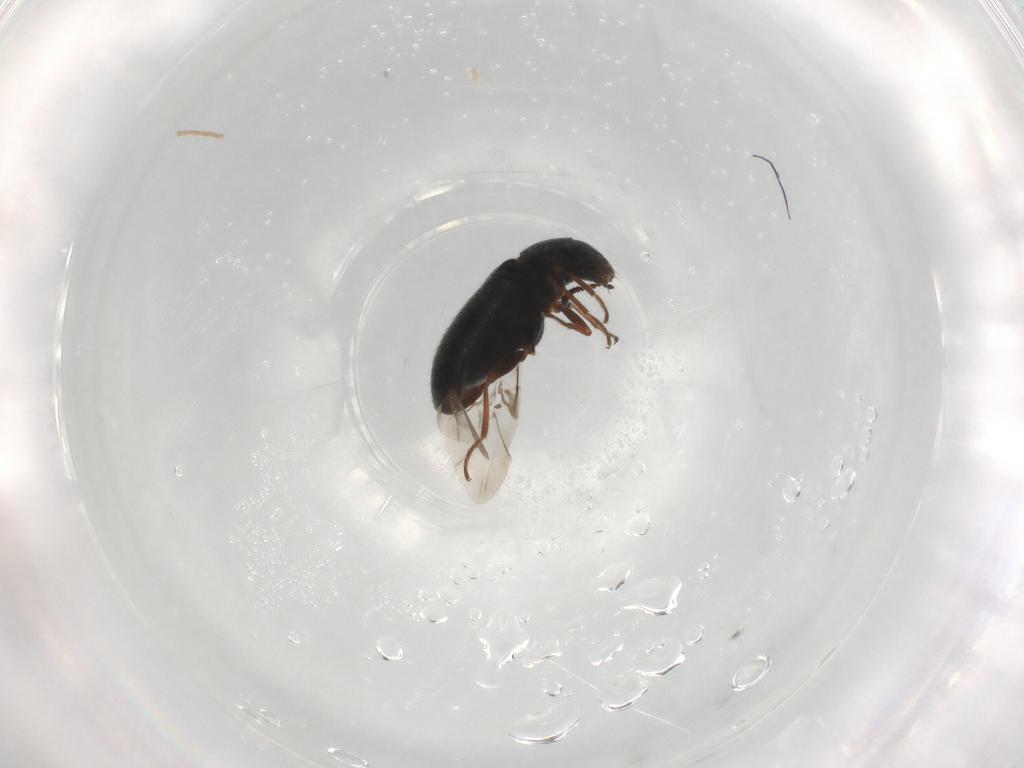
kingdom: Animalia
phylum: Arthropoda
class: Insecta
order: Coleoptera
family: Melyridae
